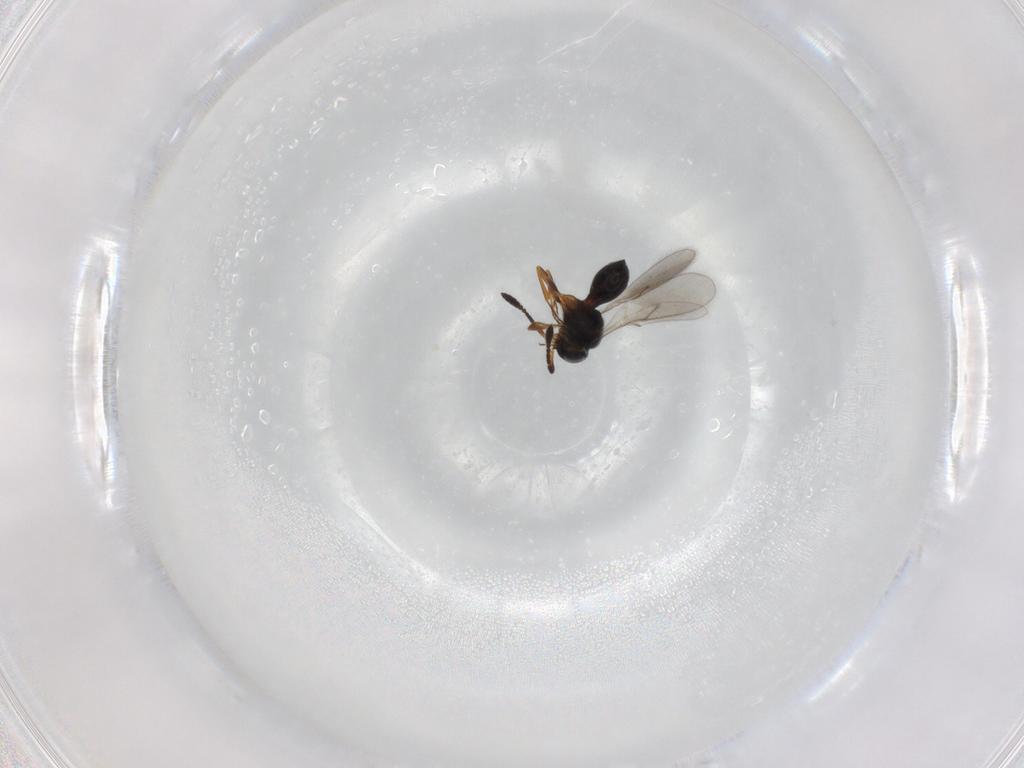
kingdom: Animalia
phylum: Arthropoda
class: Insecta
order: Hymenoptera
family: Scelionidae
